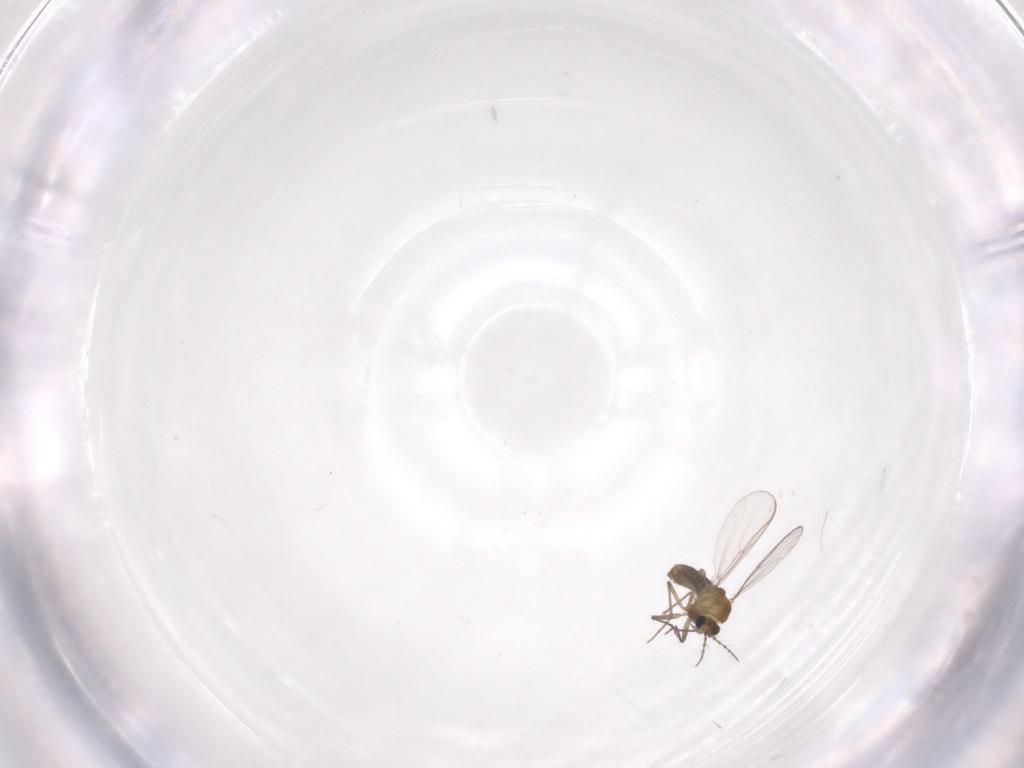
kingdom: Animalia
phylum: Arthropoda
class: Insecta
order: Diptera
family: Chironomidae
